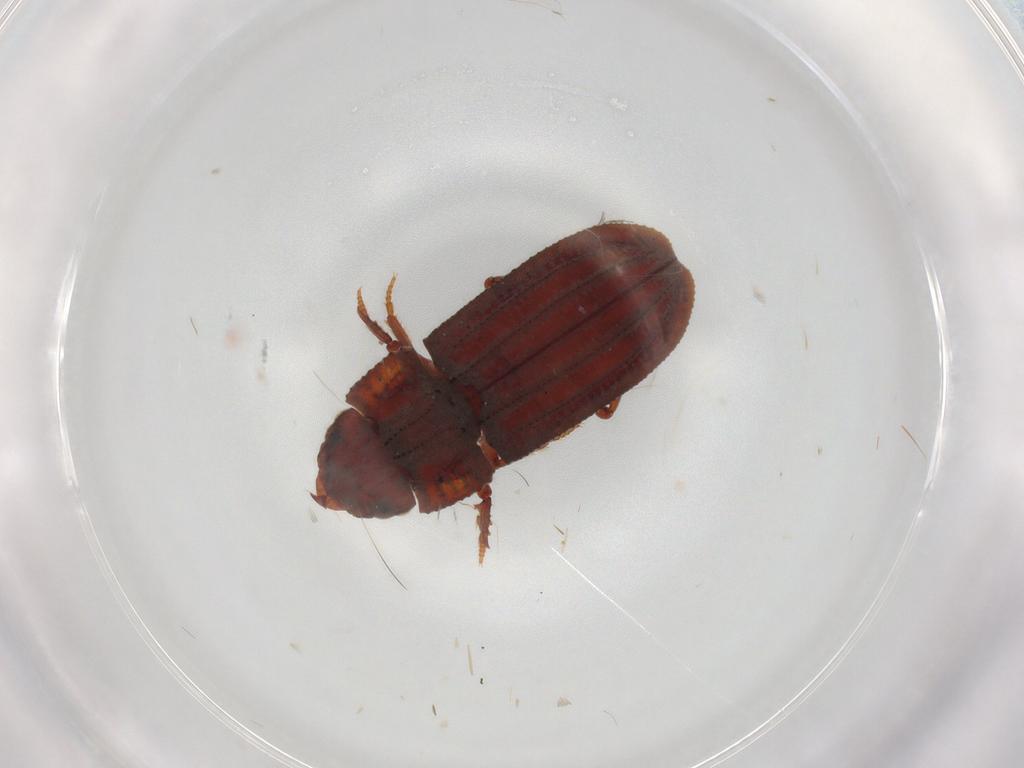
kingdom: Animalia
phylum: Arthropoda
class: Insecta
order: Coleoptera
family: Carabidae
